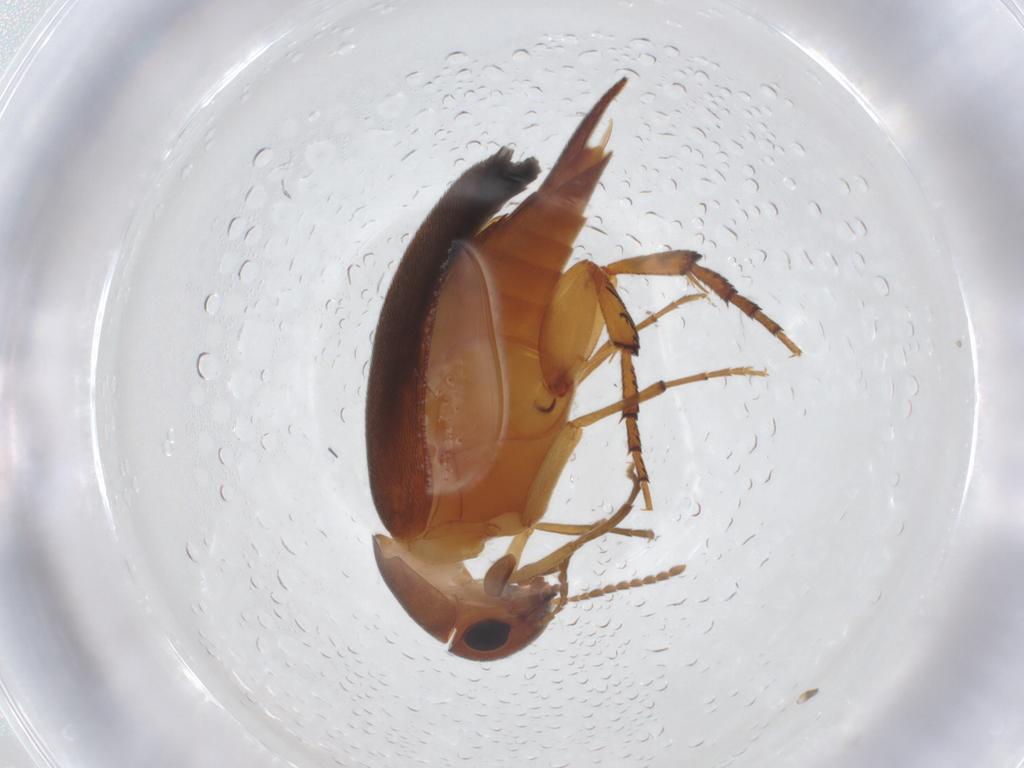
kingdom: Animalia
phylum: Arthropoda
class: Insecta
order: Coleoptera
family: Mordellidae
